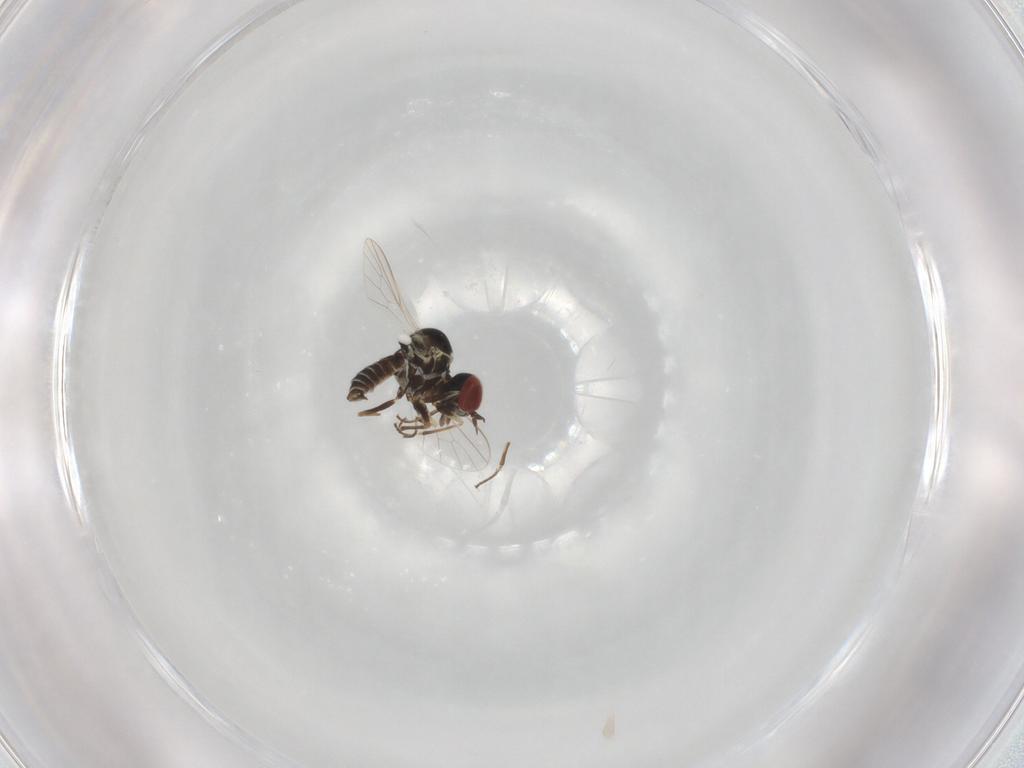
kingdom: Animalia
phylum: Arthropoda
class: Insecta
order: Diptera
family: Mythicomyiidae
